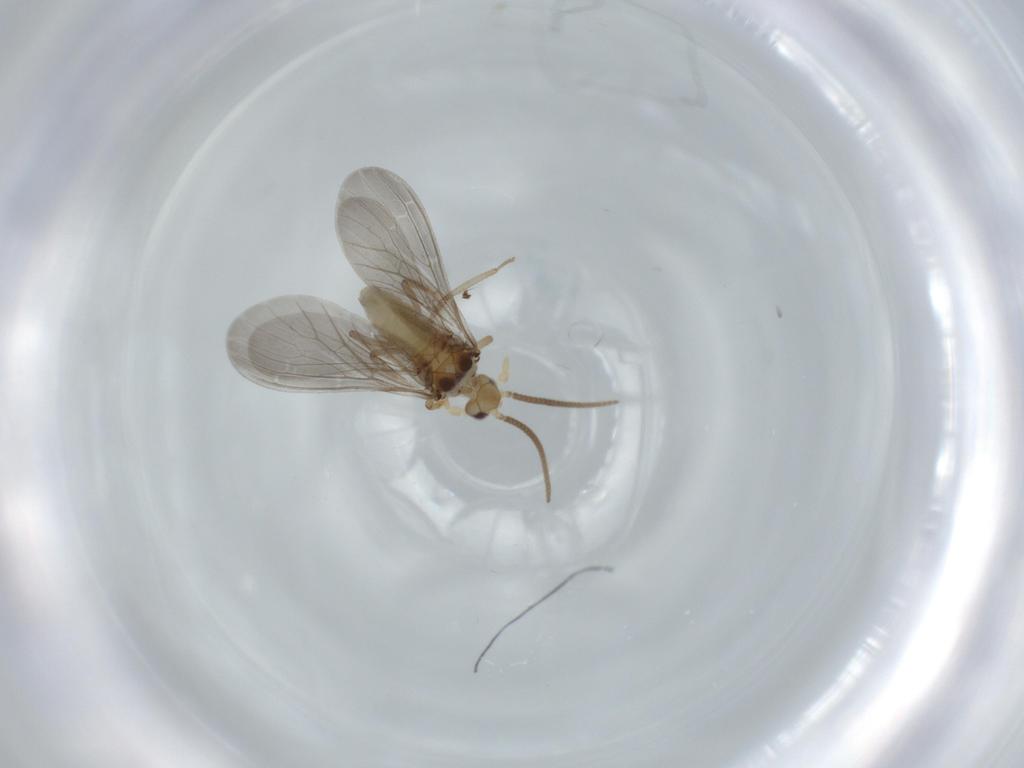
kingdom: Animalia
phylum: Arthropoda
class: Insecta
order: Neuroptera
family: Coniopterygidae
